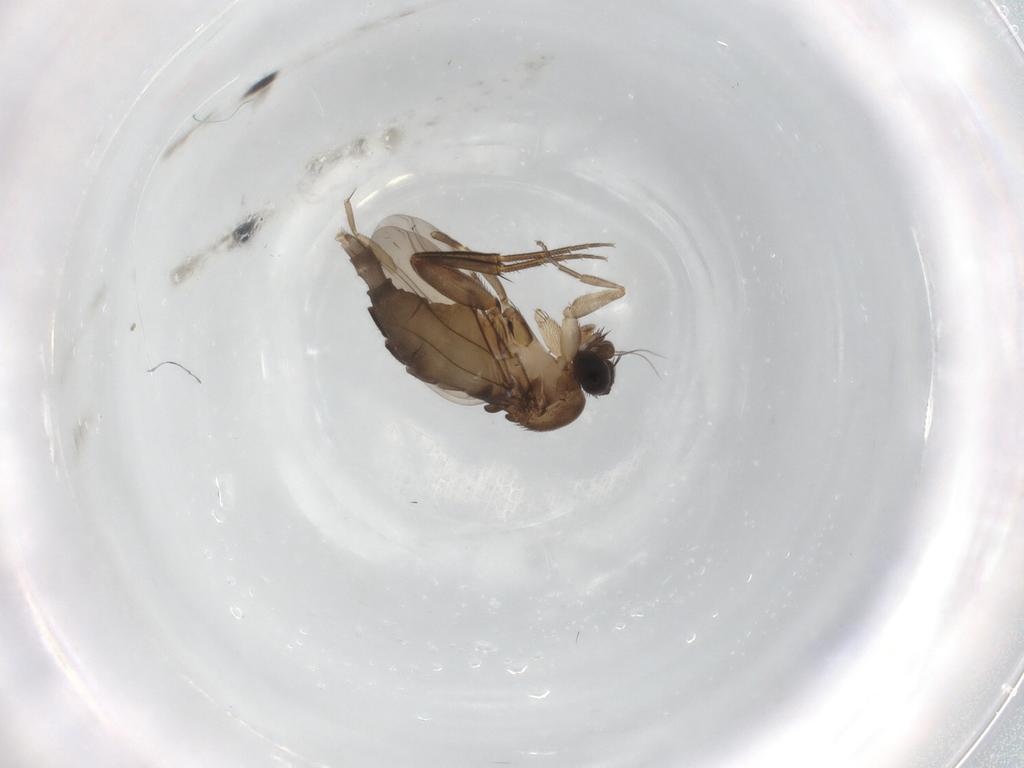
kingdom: Animalia
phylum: Arthropoda
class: Insecta
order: Diptera
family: Phoridae
